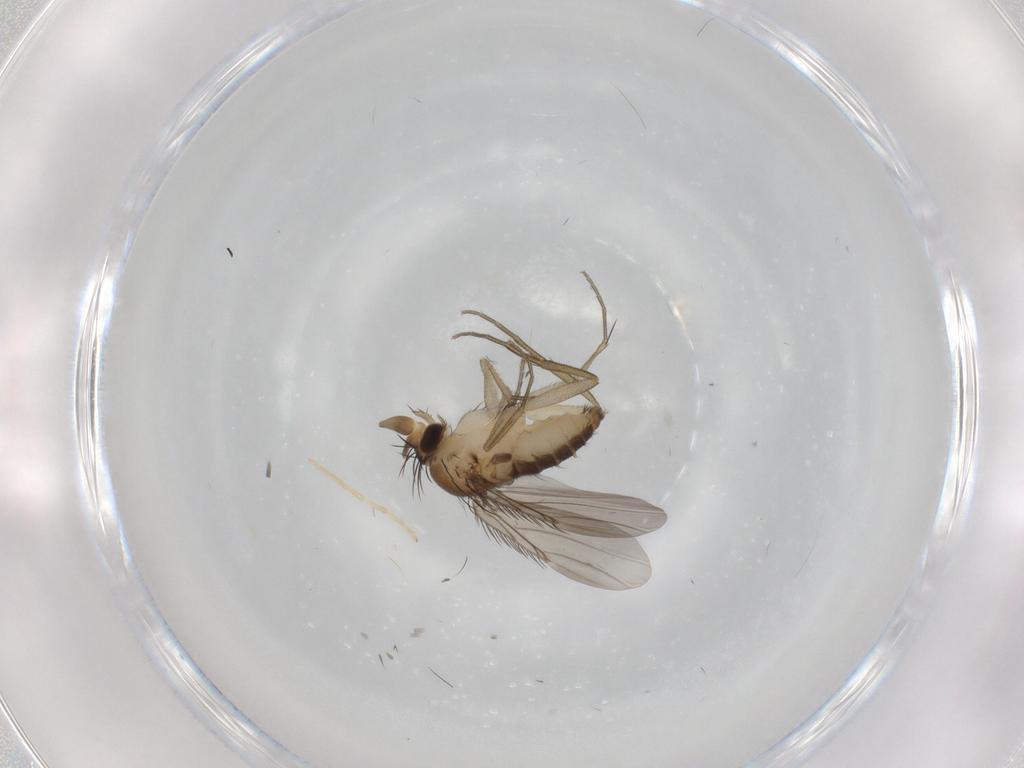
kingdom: Animalia
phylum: Arthropoda
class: Insecta
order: Diptera
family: Phoridae
